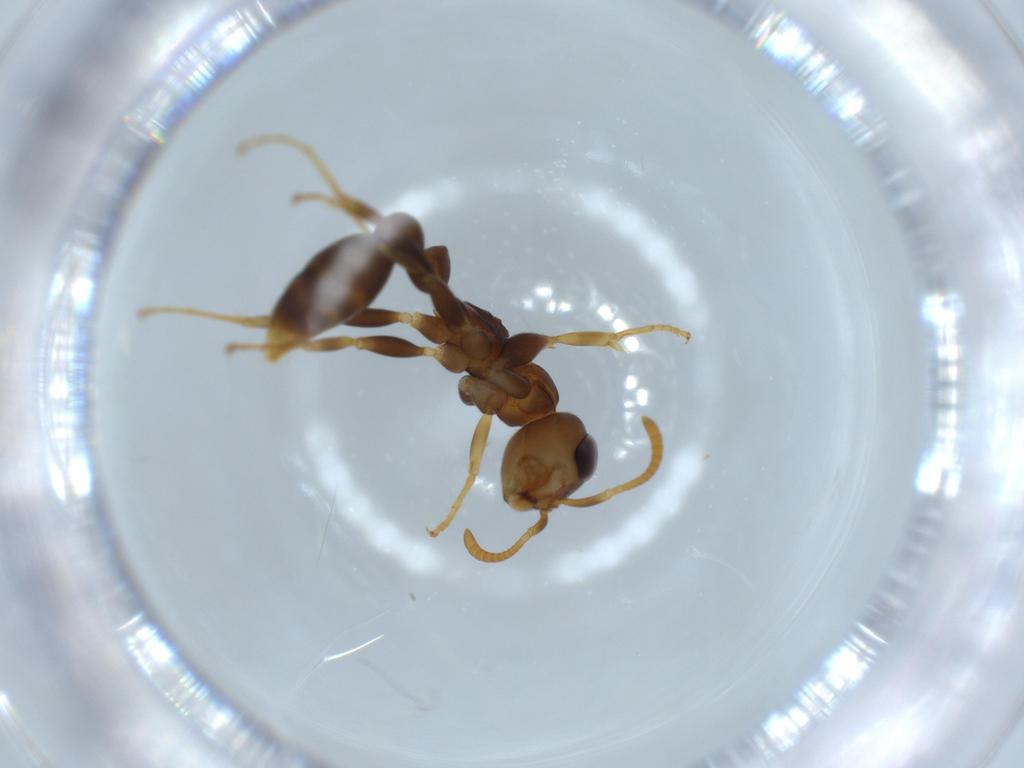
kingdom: Animalia
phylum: Arthropoda
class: Insecta
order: Hymenoptera
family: Formicidae
